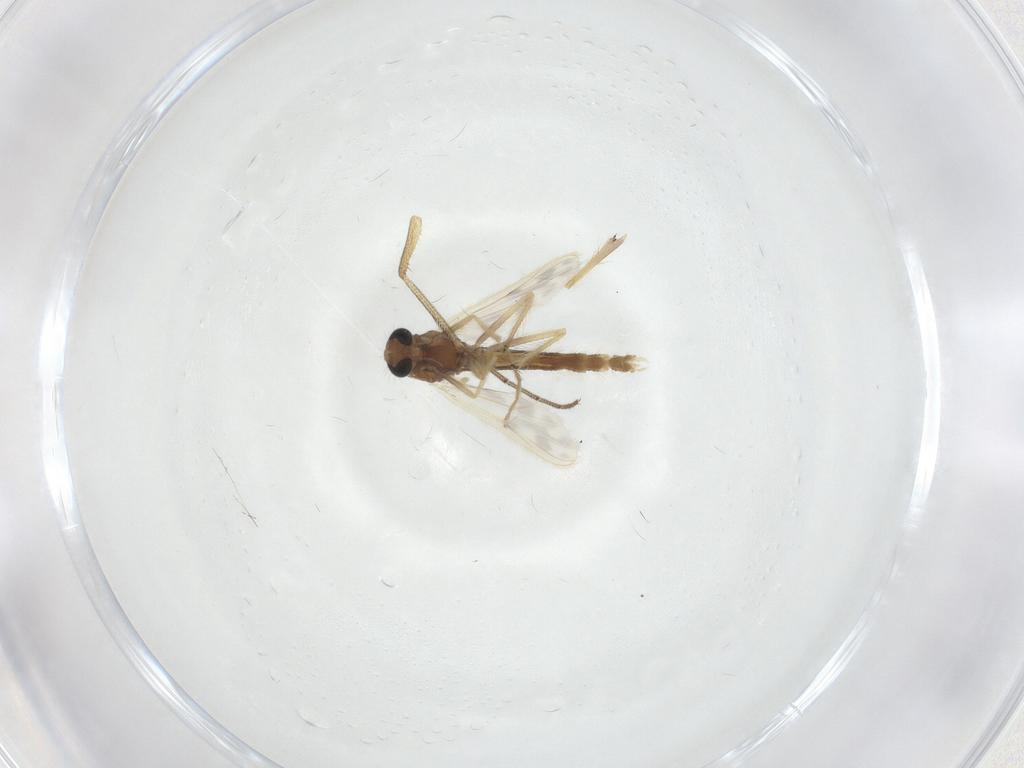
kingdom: Animalia
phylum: Arthropoda
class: Insecta
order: Diptera
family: Chironomidae
